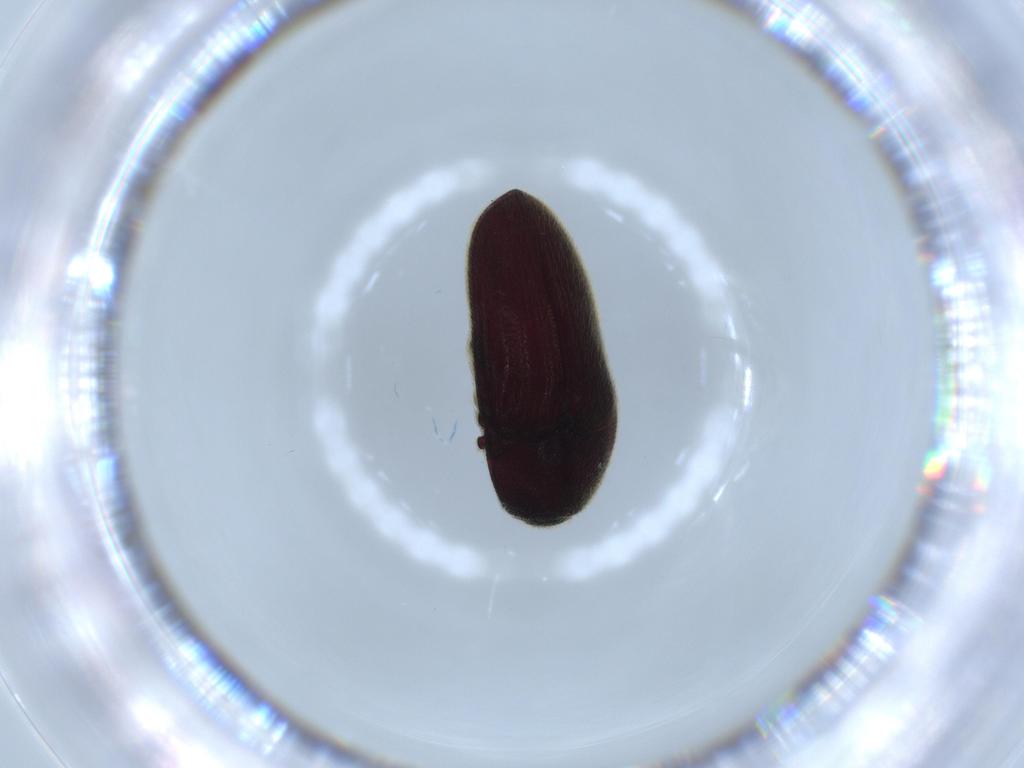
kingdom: Animalia
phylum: Arthropoda
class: Insecta
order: Coleoptera
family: Throscidae
